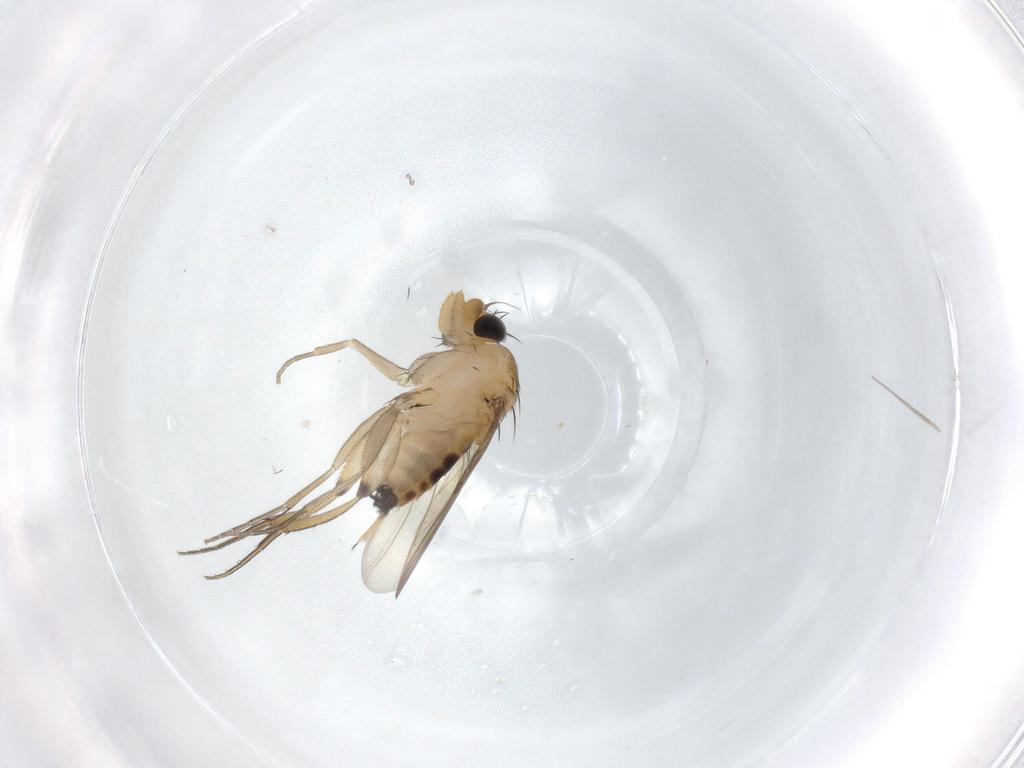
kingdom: Animalia
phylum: Arthropoda
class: Insecta
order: Diptera
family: Phoridae
